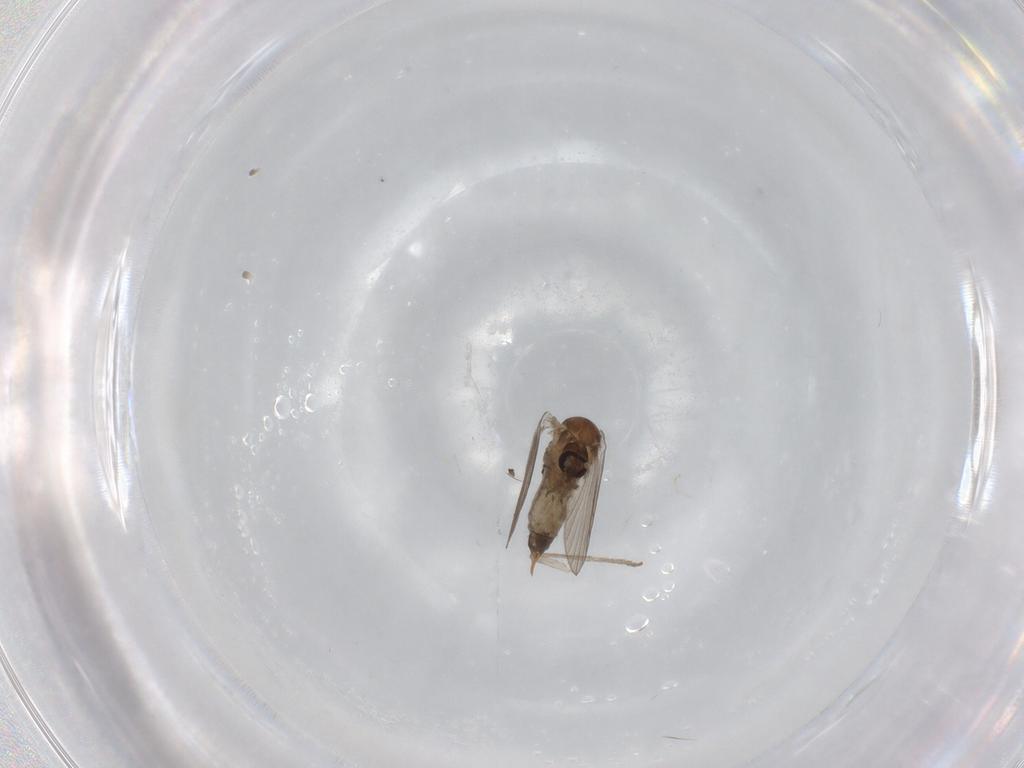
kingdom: Animalia
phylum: Arthropoda
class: Insecta
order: Diptera
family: Psychodidae
